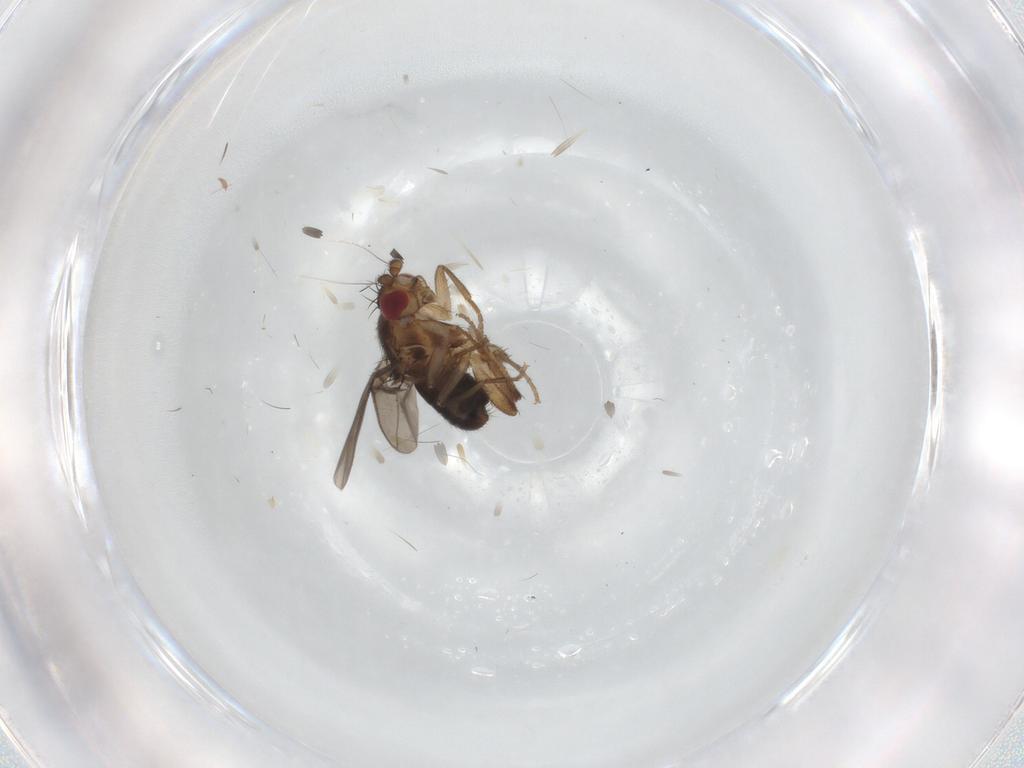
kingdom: Animalia
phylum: Arthropoda
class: Insecta
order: Diptera
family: Sphaeroceridae
